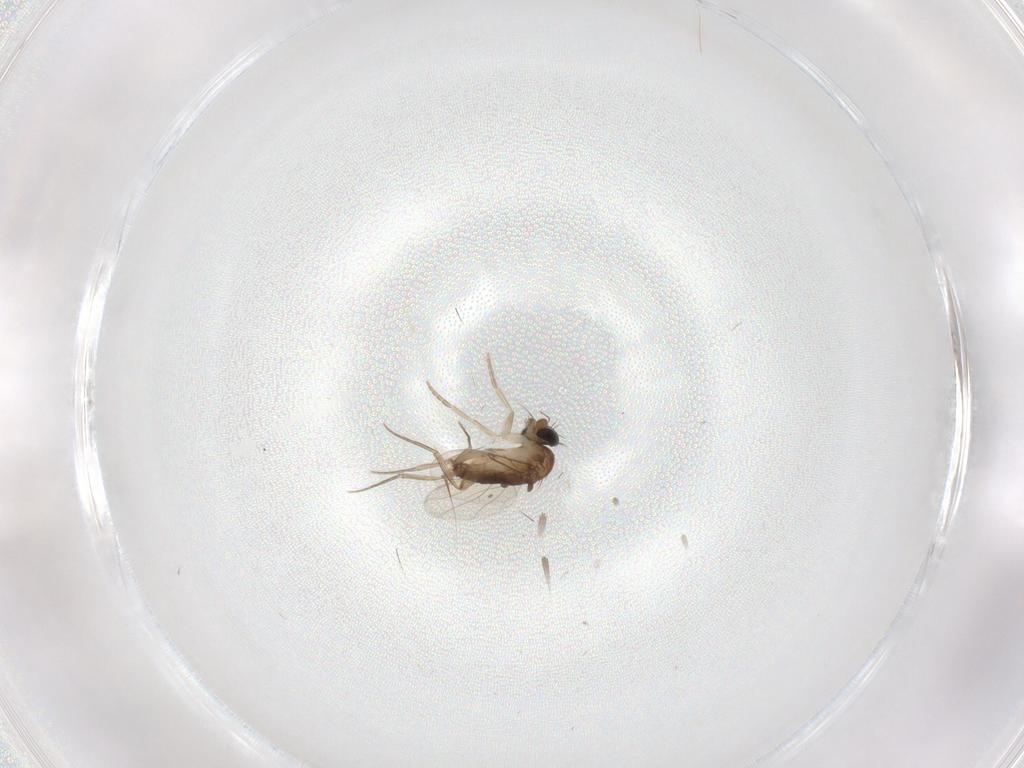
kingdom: Animalia
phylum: Arthropoda
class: Insecta
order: Diptera
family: Phoridae
